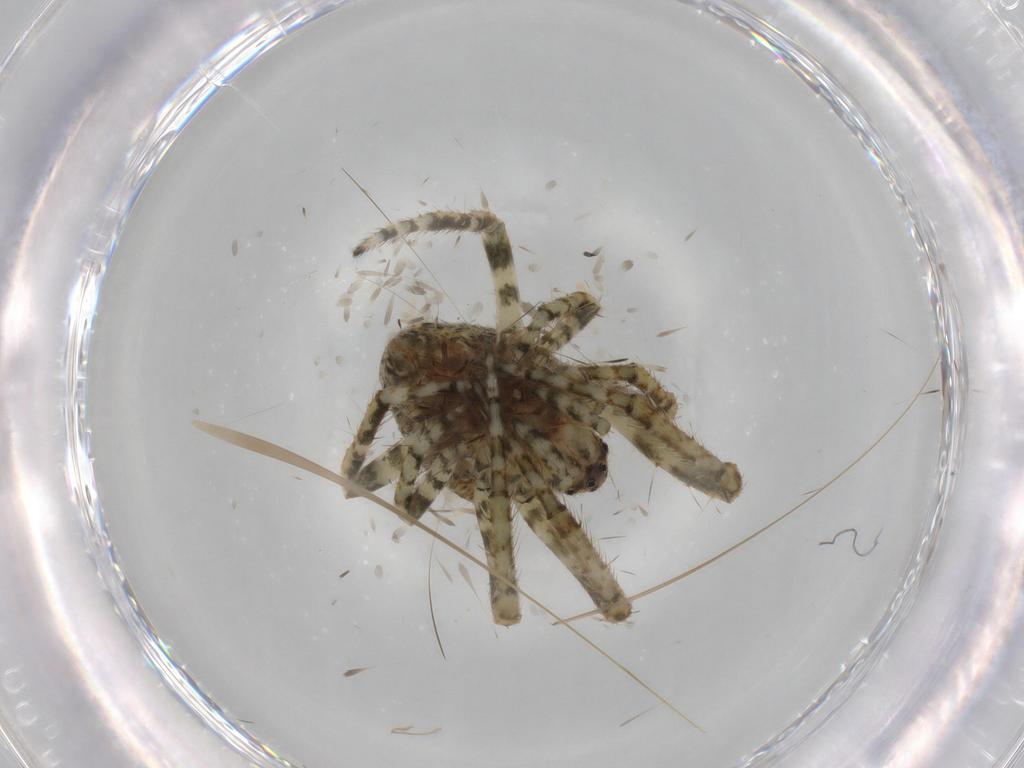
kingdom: Animalia
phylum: Arthropoda
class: Arachnida
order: Araneae
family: Araneidae
